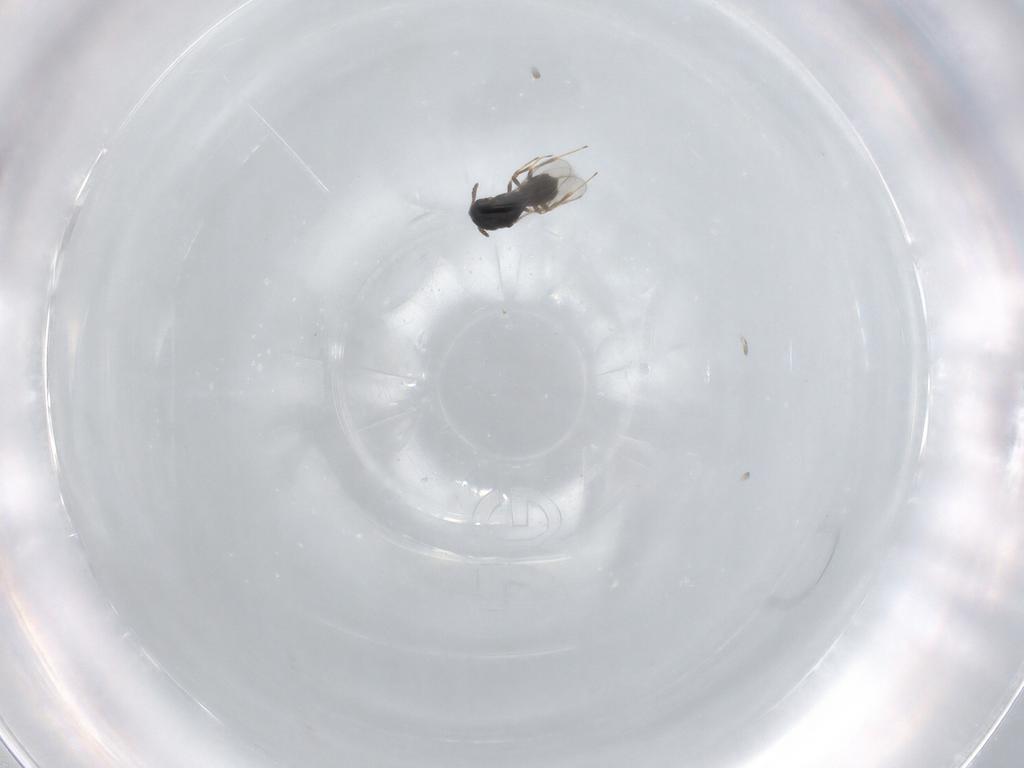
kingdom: Animalia
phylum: Arthropoda
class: Insecta
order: Hymenoptera
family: Scelionidae
